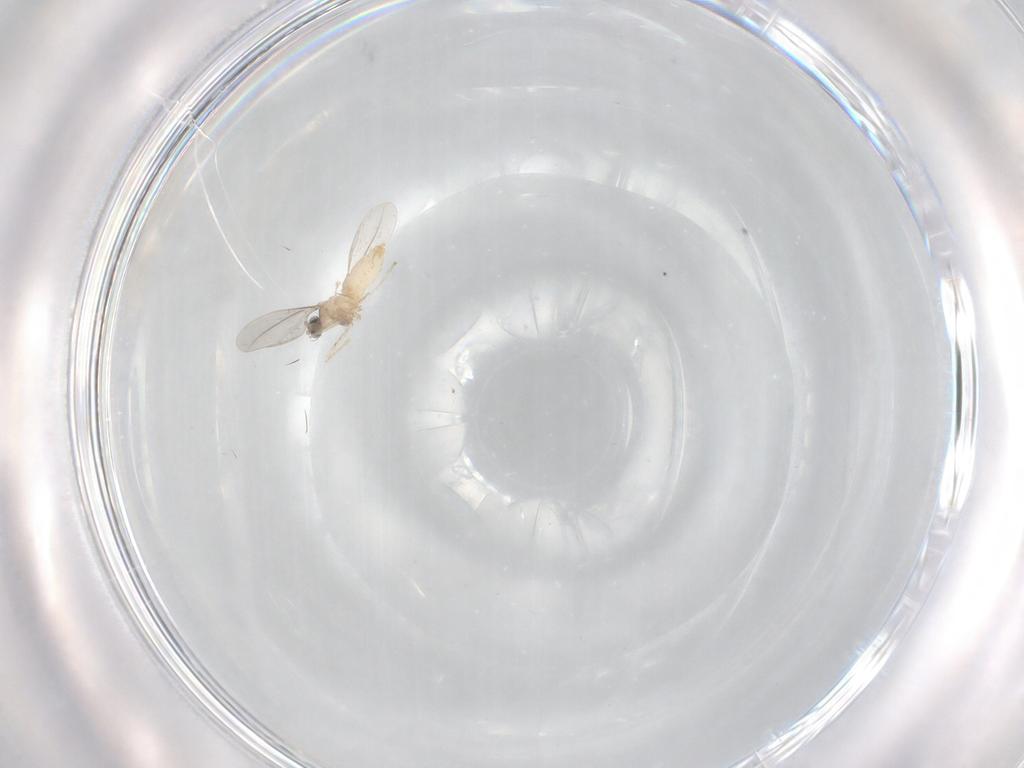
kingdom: Animalia
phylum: Arthropoda
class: Insecta
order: Diptera
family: Cecidomyiidae
